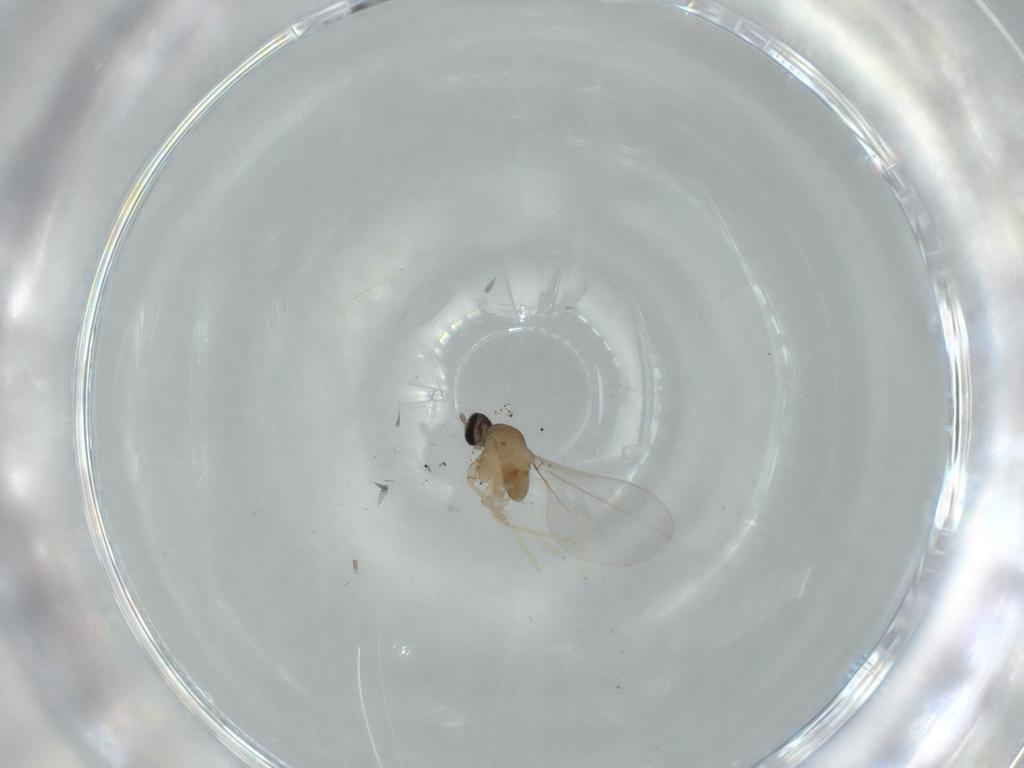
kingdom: Animalia
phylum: Arthropoda
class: Insecta
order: Diptera
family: Cecidomyiidae
